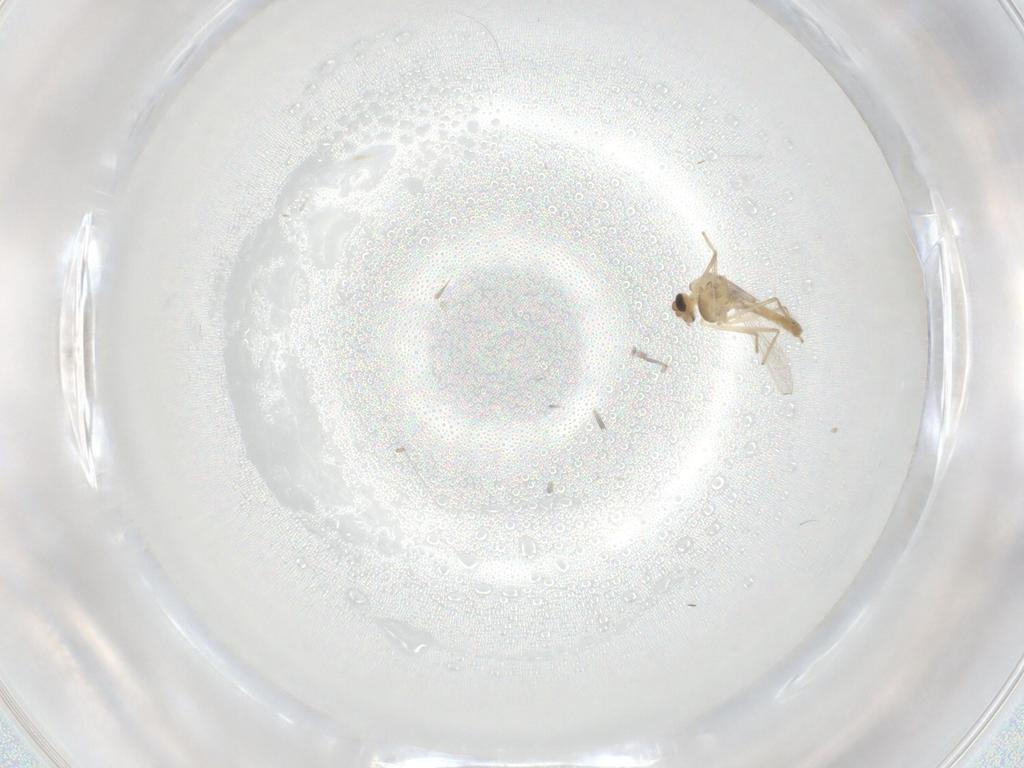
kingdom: Animalia
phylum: Arthropoda
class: Insecta
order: Diptera
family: Chironomidae
